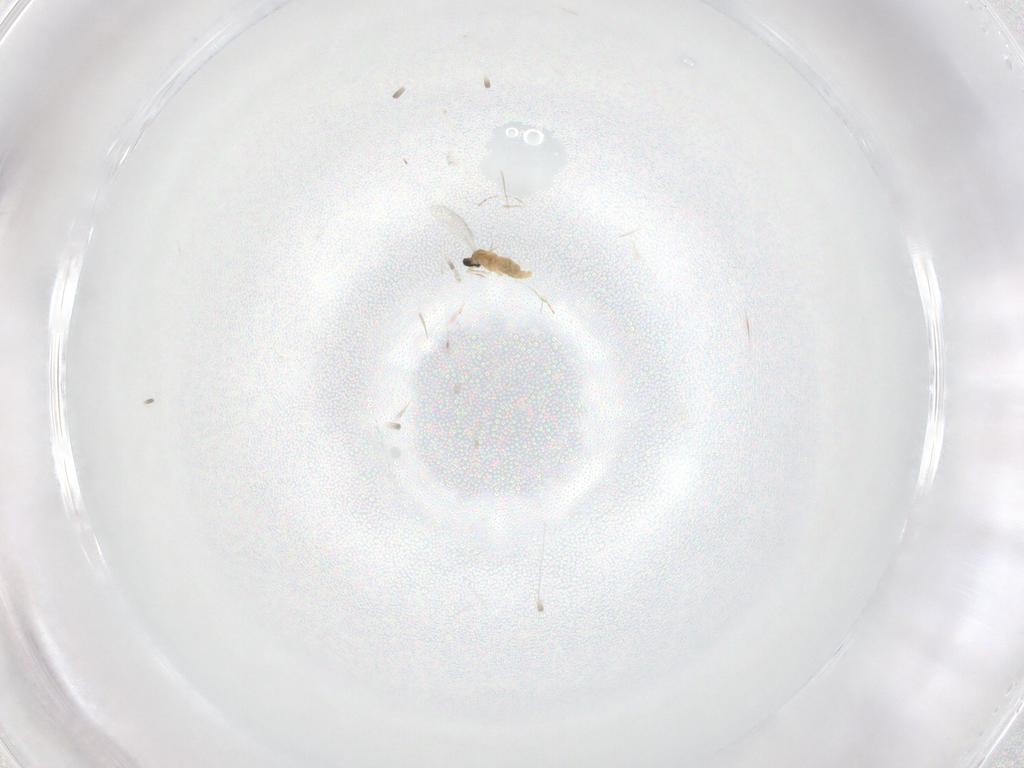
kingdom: Animalia
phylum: Arthropoda
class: Insecta
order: Diptera
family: Cecidomyiidae
